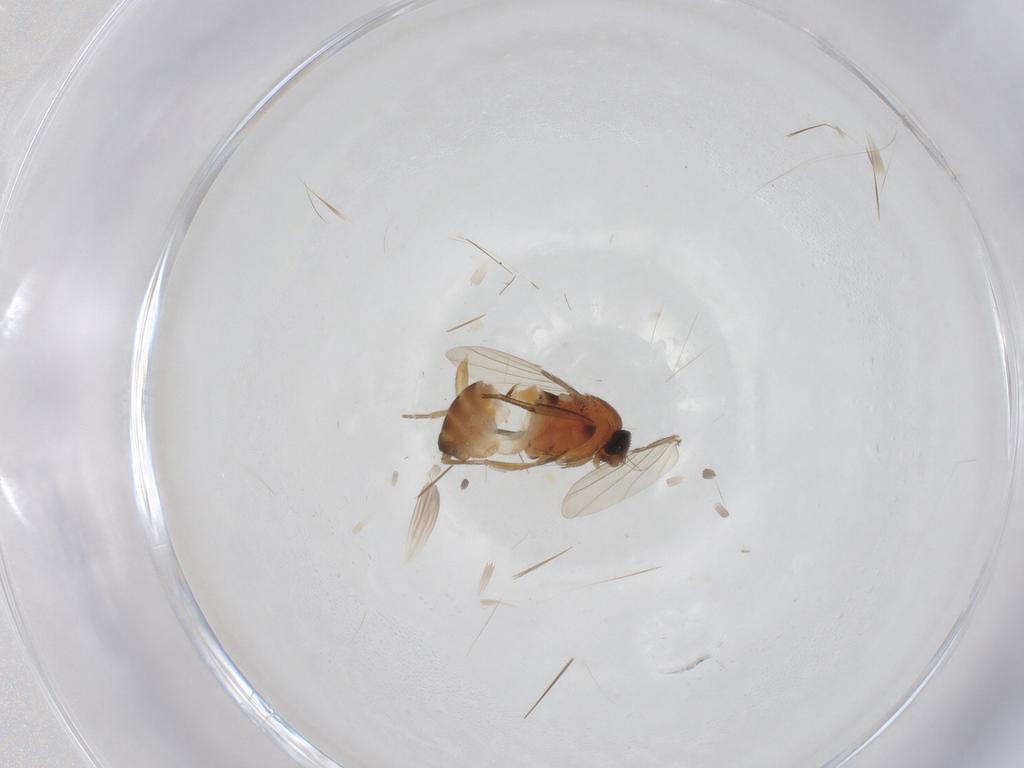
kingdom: Animalia
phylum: Arthropoda
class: Insecta
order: Diptera
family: Phoridae
